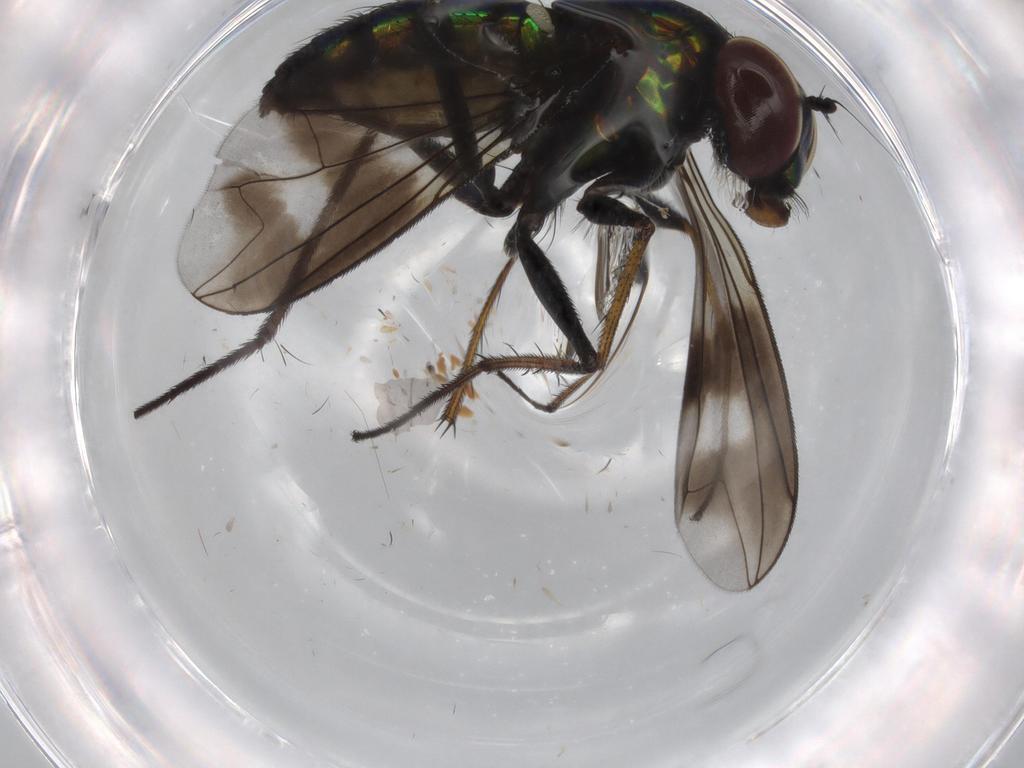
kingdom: Animalia
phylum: Arthropoda
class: Insecta
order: Diptera
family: Dolichopodidae
